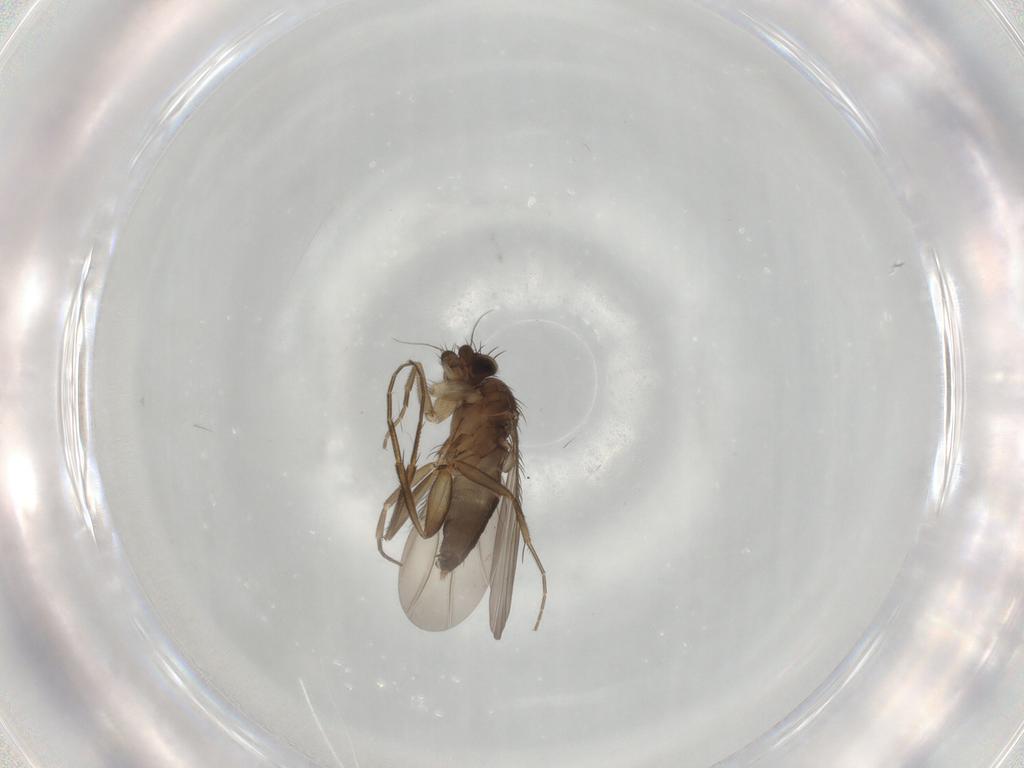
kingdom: Animalia
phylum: Arthropoda
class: Insecta
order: Diptera
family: Phoridae
